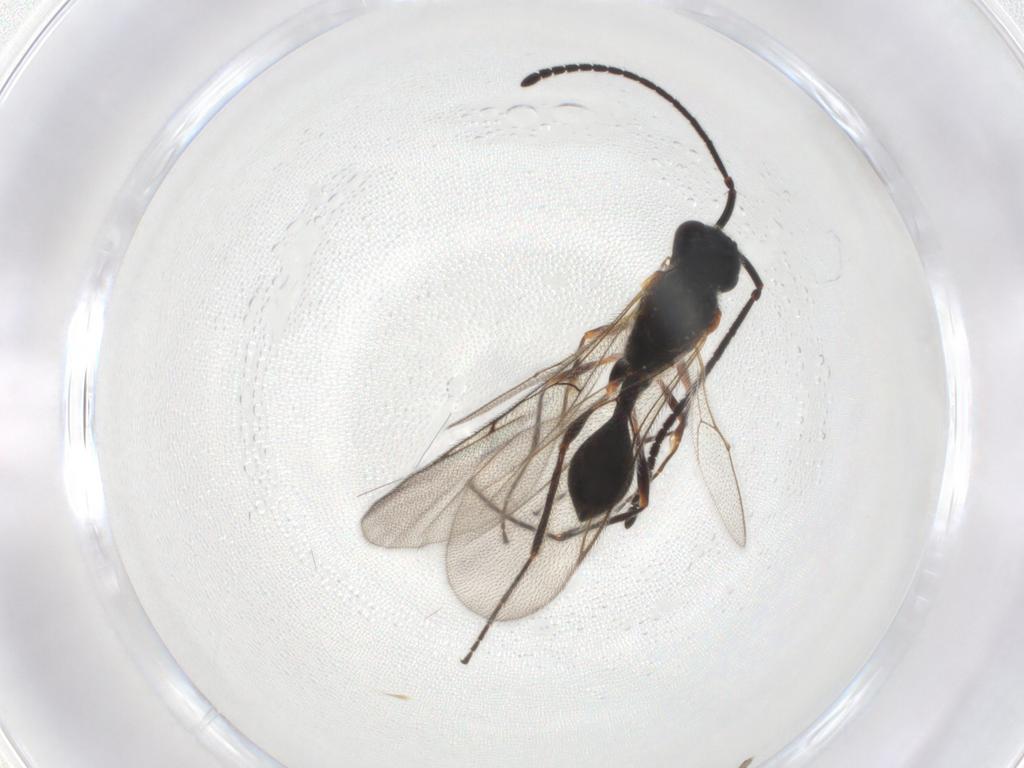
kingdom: Animalia
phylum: Arthropoda
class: Insecta
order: Hymenoptera
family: Diapriidae
